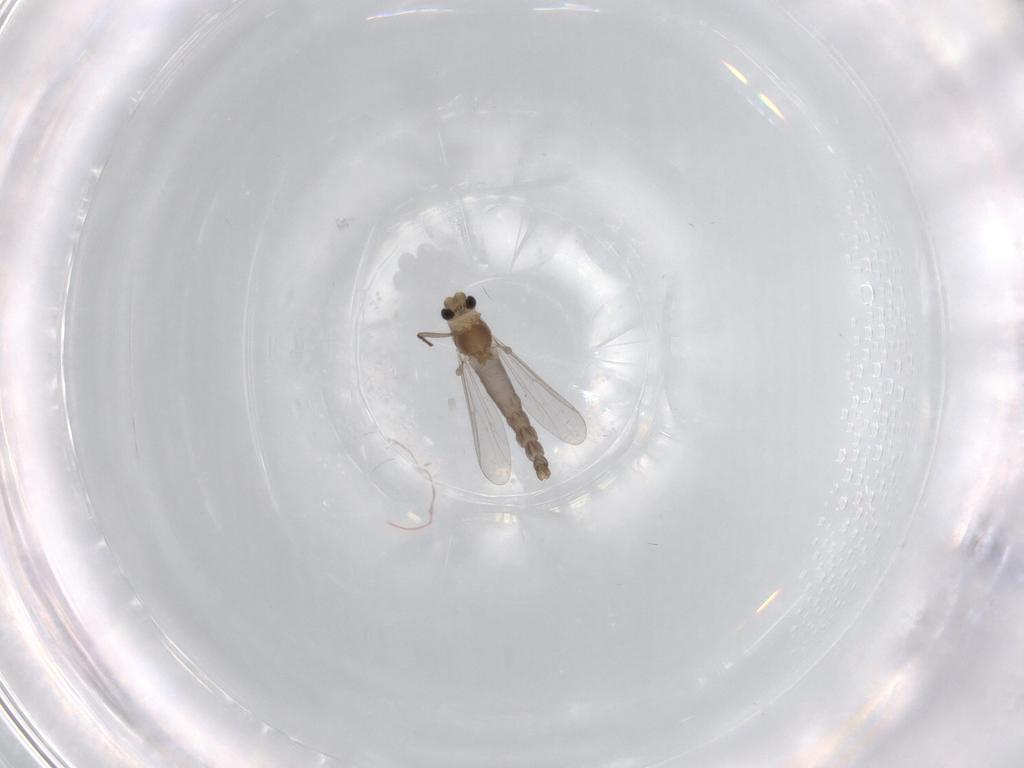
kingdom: Animalia
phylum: Arthropoda
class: Insecta
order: Diptera
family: Chironomidae
